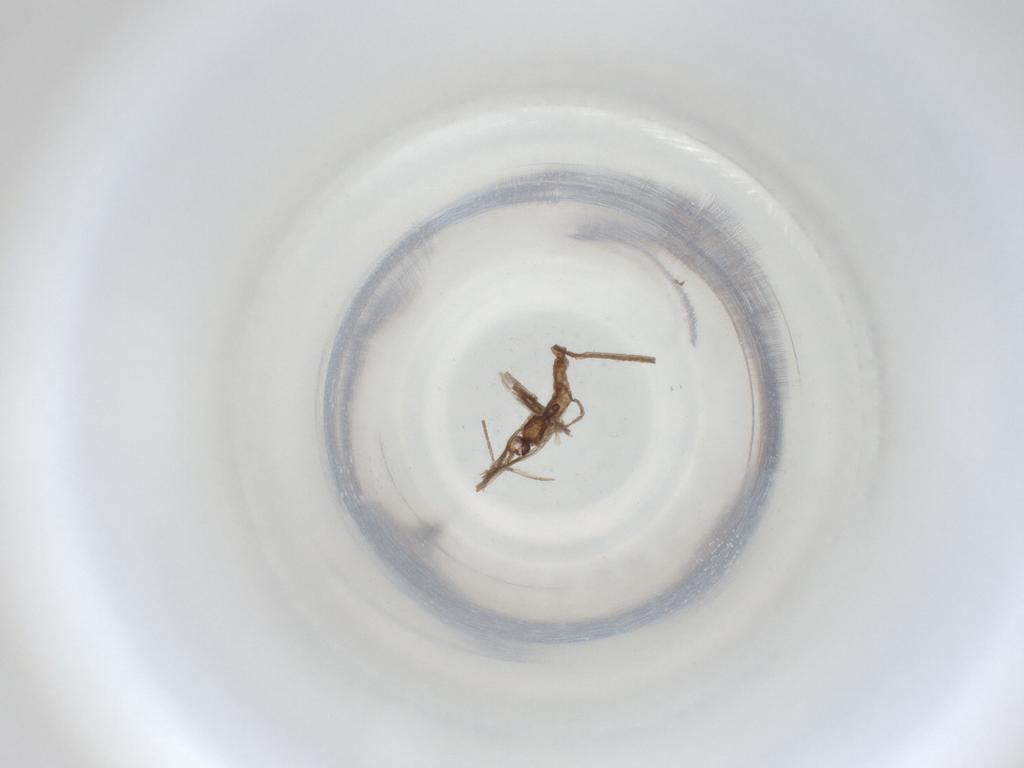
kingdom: Animalia
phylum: Arthropoda
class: Insecta
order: Diptera
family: Cecidomyiidae
